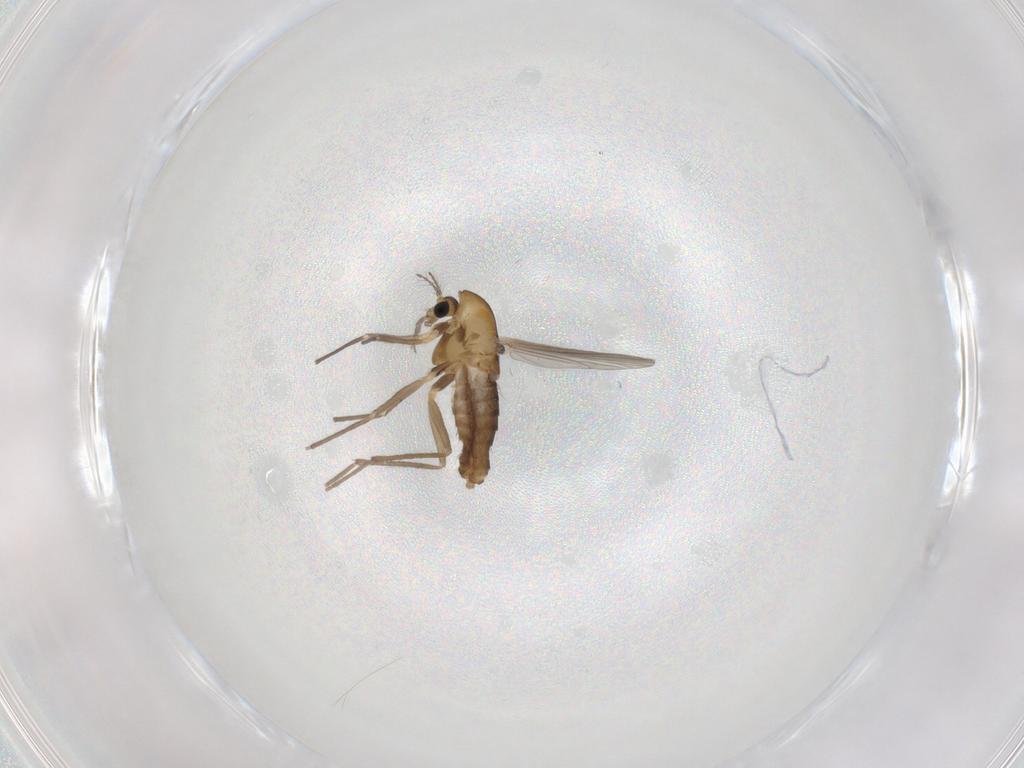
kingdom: Animalia
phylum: Arthropoda
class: Insecta
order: Diptera
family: Chironomidae
